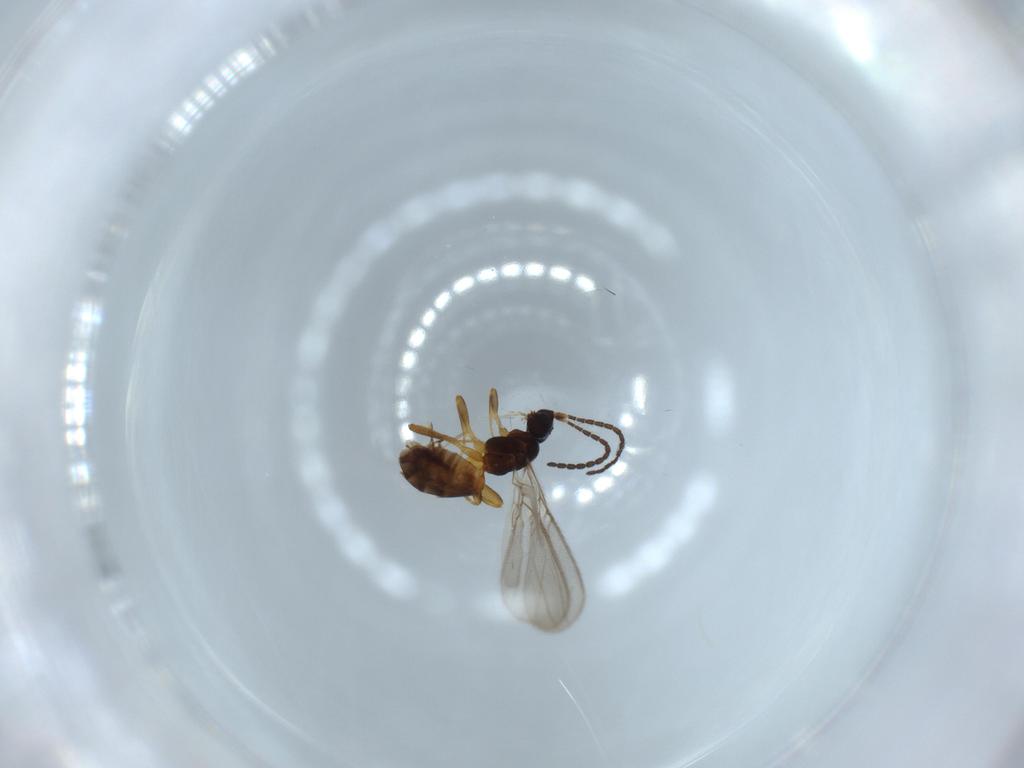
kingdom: Animalia
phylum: Arthropoda
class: Insecta
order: Hymenoptera
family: Braconidae
